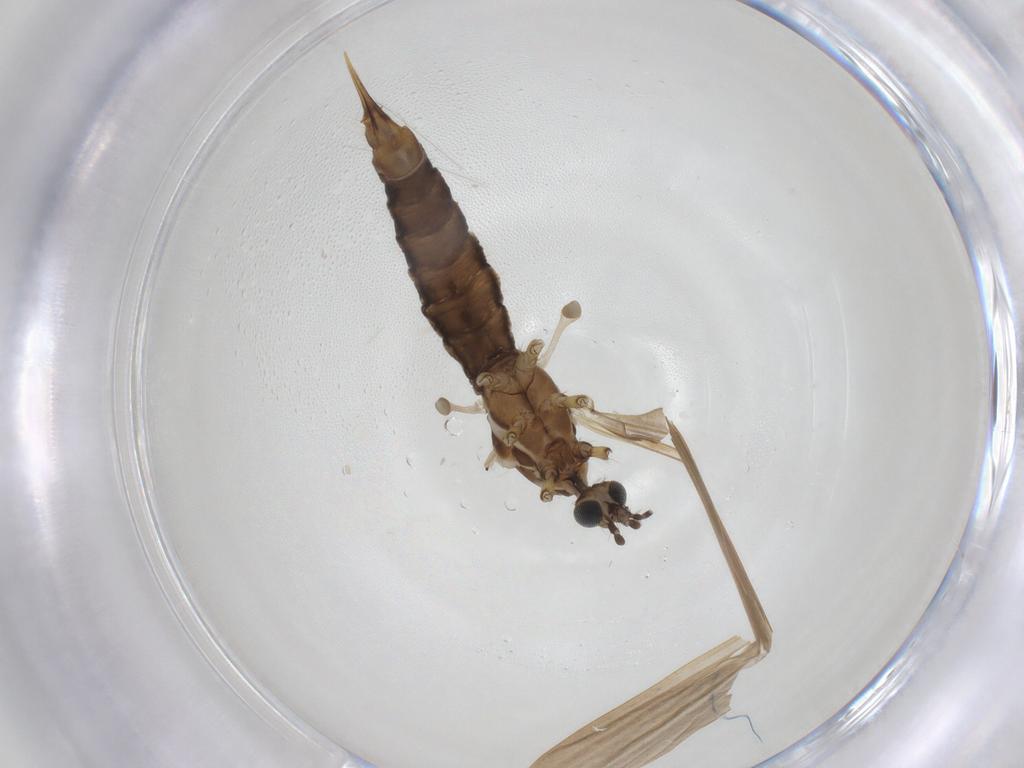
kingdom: Animalia
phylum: Arthropoda
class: Insecta
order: Diptera
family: Limoniidae
